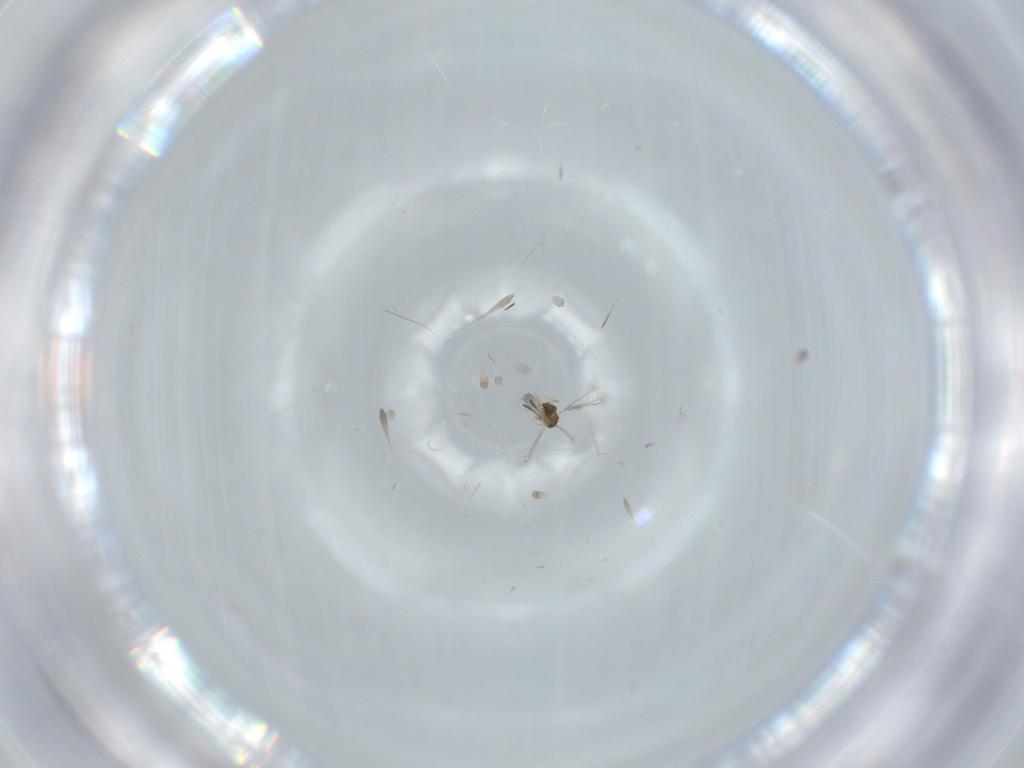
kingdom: Animalia
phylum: Arthropoda
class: Insecta
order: Hymenoptera
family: Mymaridae
